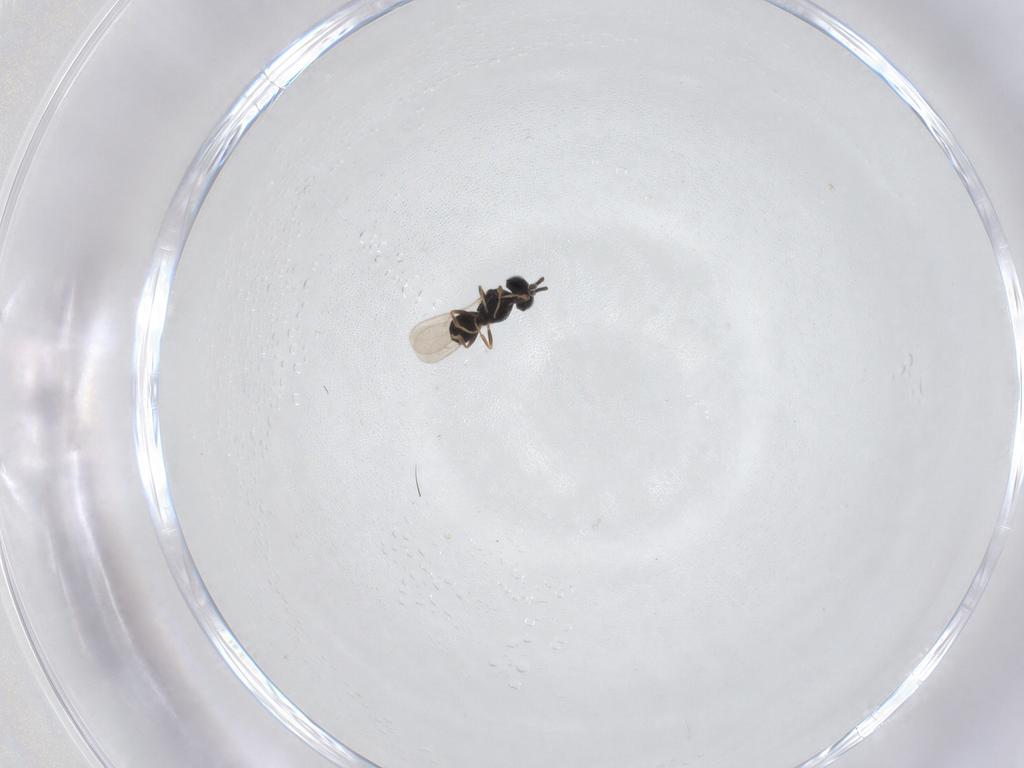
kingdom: Animalia
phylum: Arthropoda
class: Insecta
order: Hymenoptera
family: Scelionidae
